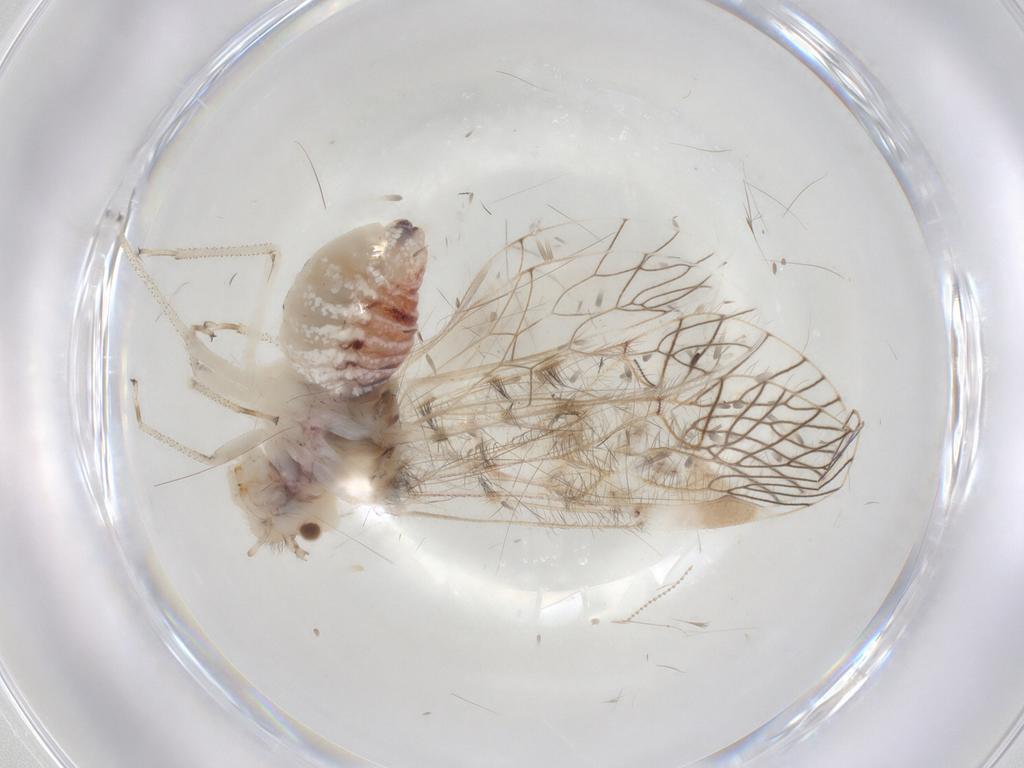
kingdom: Animalia
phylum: Arthropoda
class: Insecta
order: Psocodea
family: Amphipsocidae
